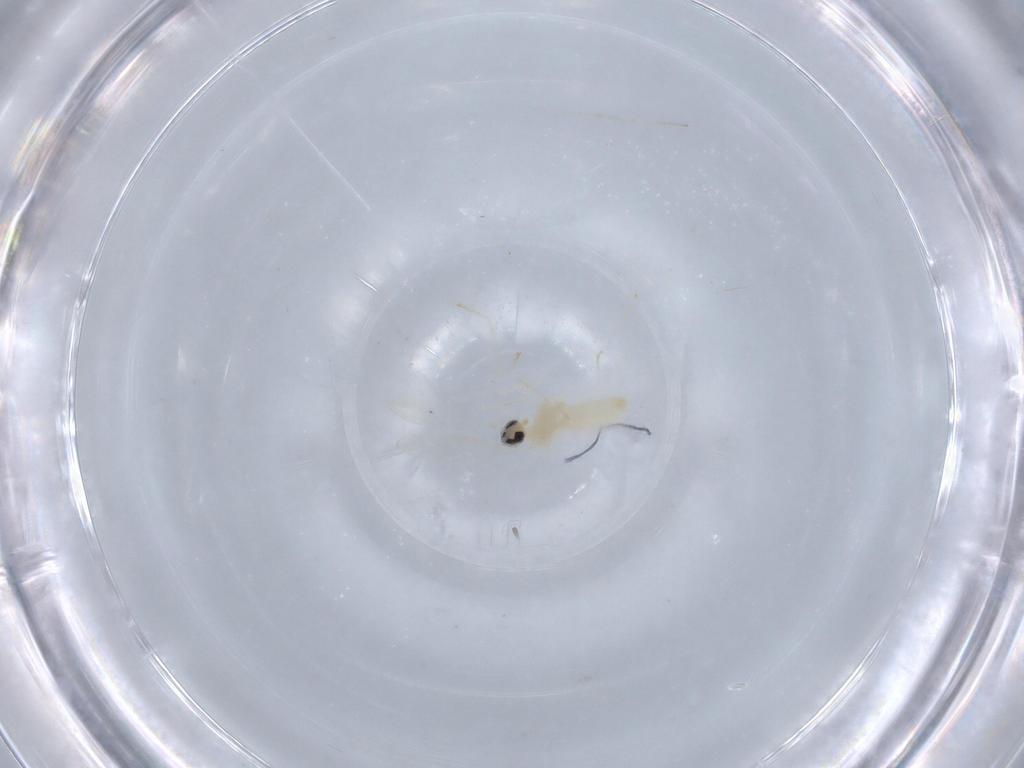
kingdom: Animalia
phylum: Arthropoda
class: Insecta
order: Diptera
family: Cecidomyiidae
